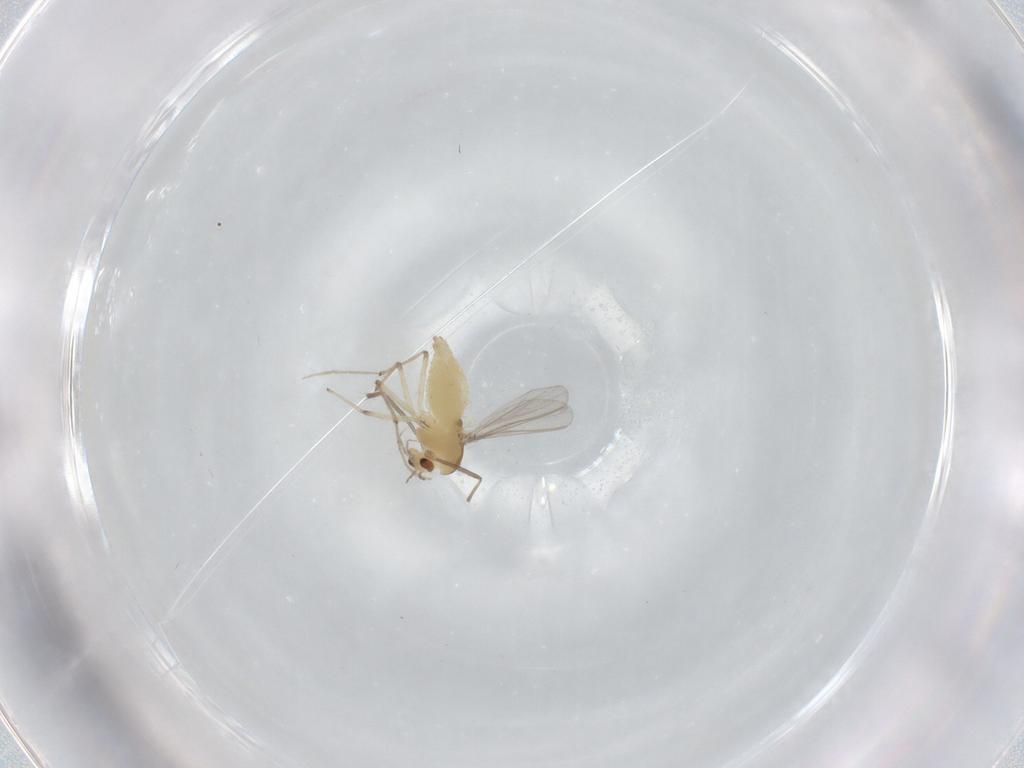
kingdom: Animalia
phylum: Arthropoda
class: Insecta
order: Diptera
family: Chironomidae
